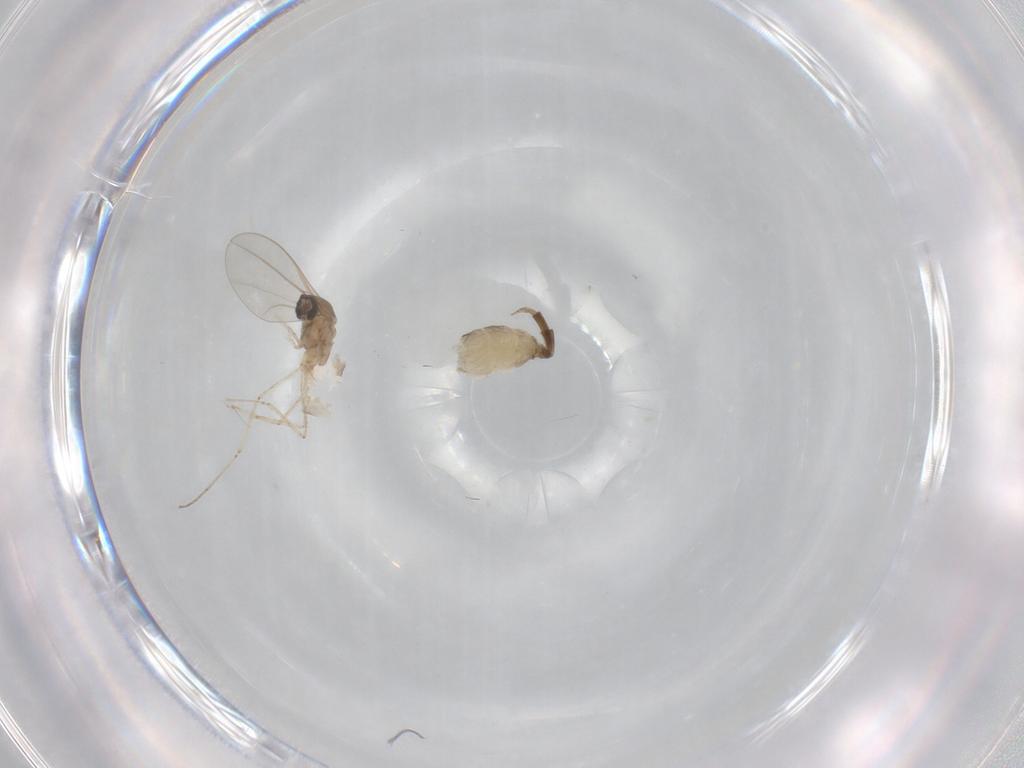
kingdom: Animalia
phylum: Arthropoda
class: Insecta
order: Diptera
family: Cecidomyiidae
